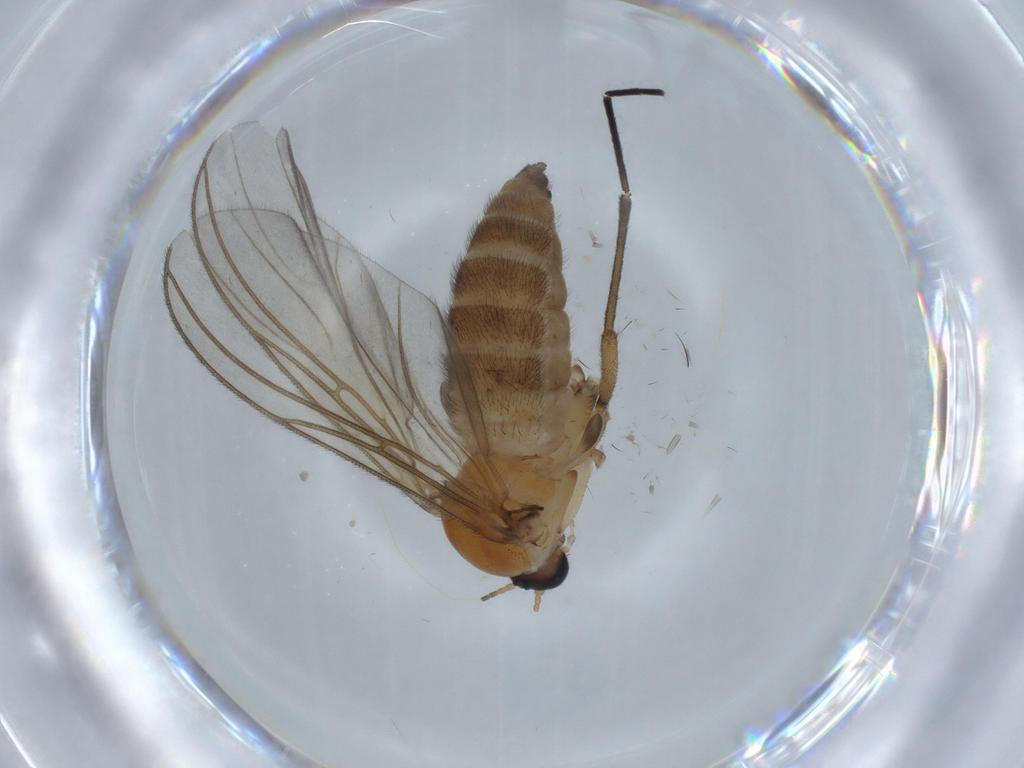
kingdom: Animalia
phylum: Arthropoda
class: Insecta
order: Diptera
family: Sciaridae
